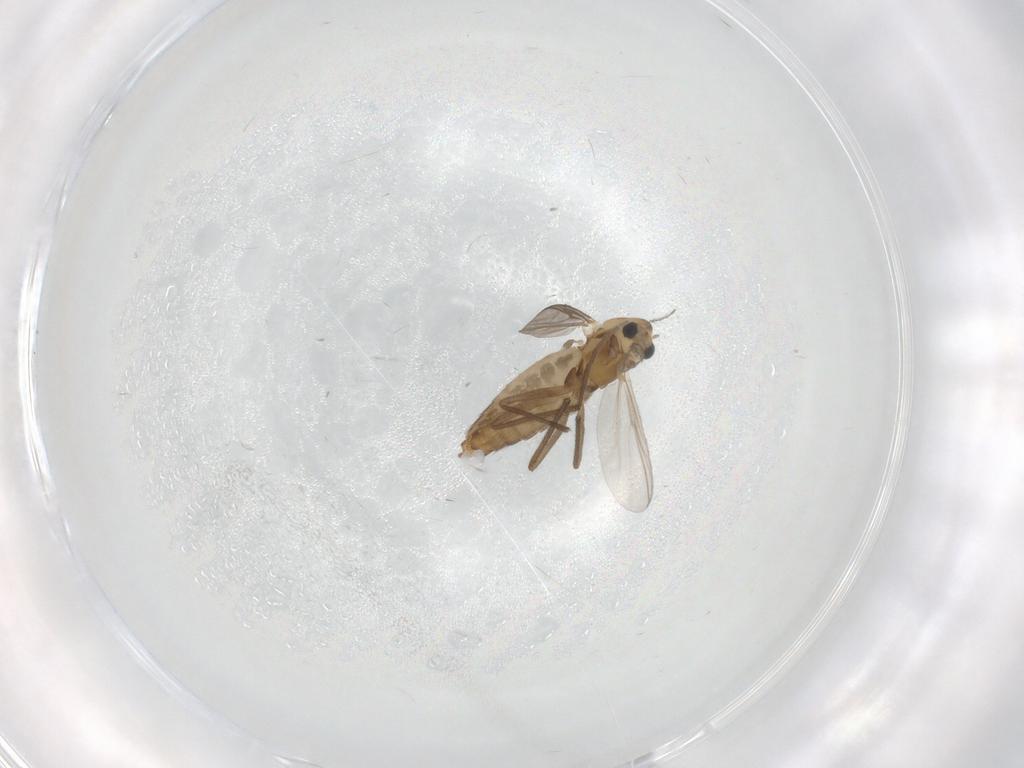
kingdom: Animalia
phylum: Arthropoda
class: Insecta
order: Diptera
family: Chironomidae
